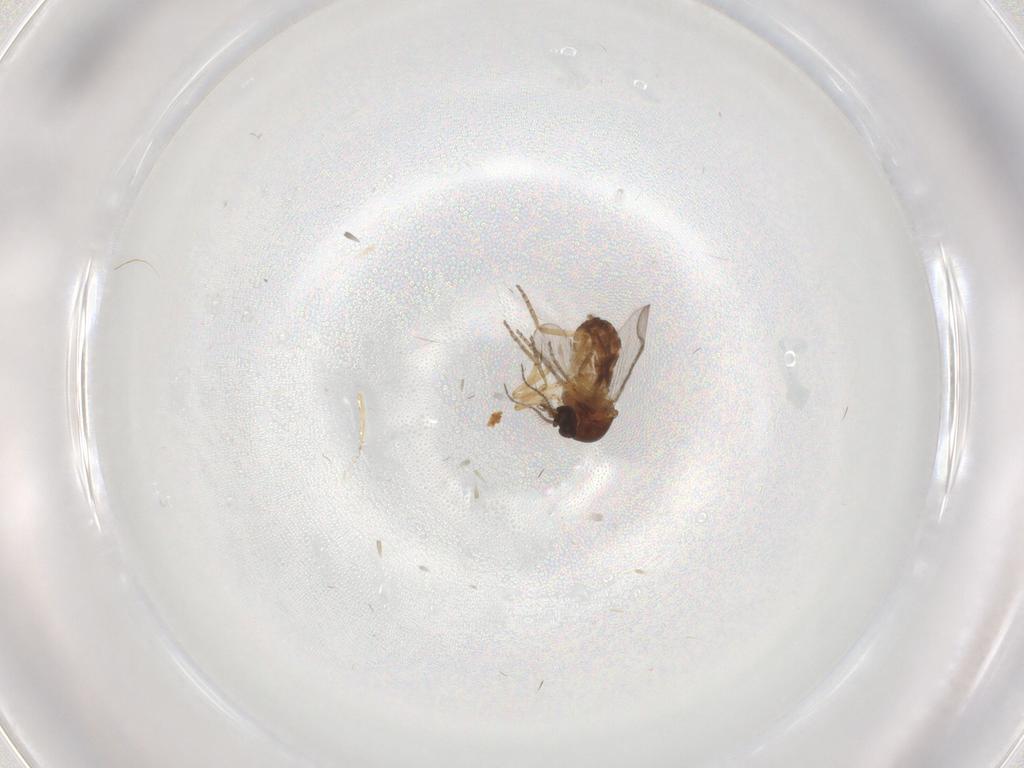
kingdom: Animalia
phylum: Arthropoda
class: Insecta
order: Diptera
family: Ceratopogonidae
